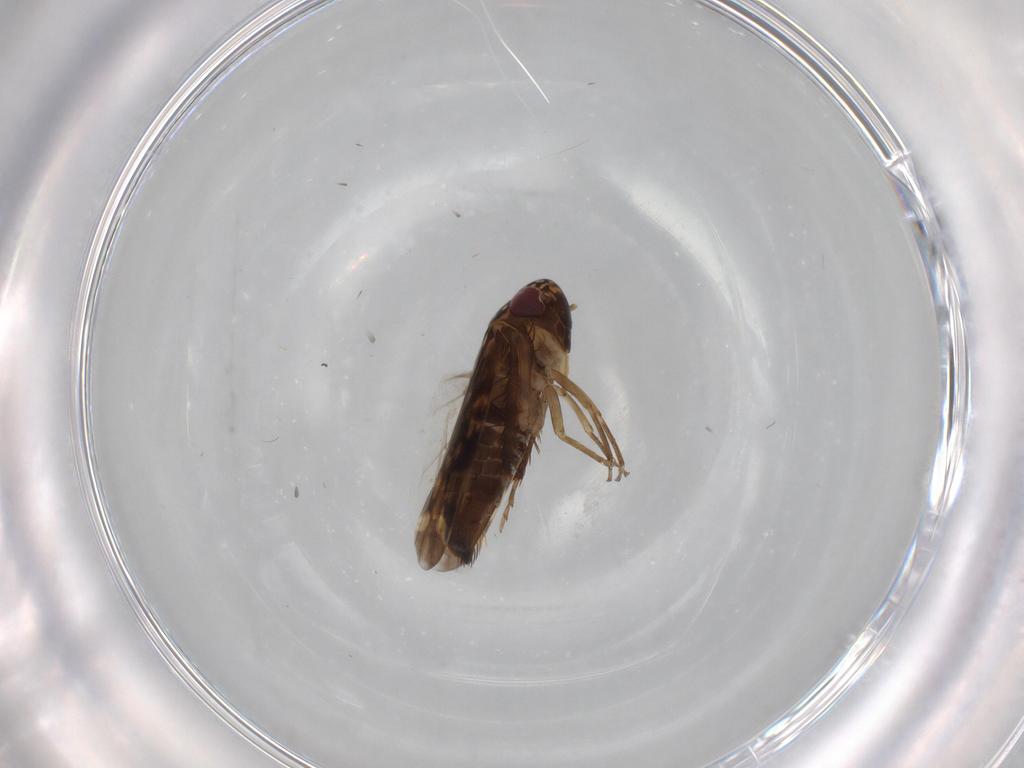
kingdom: Animalia
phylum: Arthropoda
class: Insecta
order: Hemiptera
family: Cicadellidae
